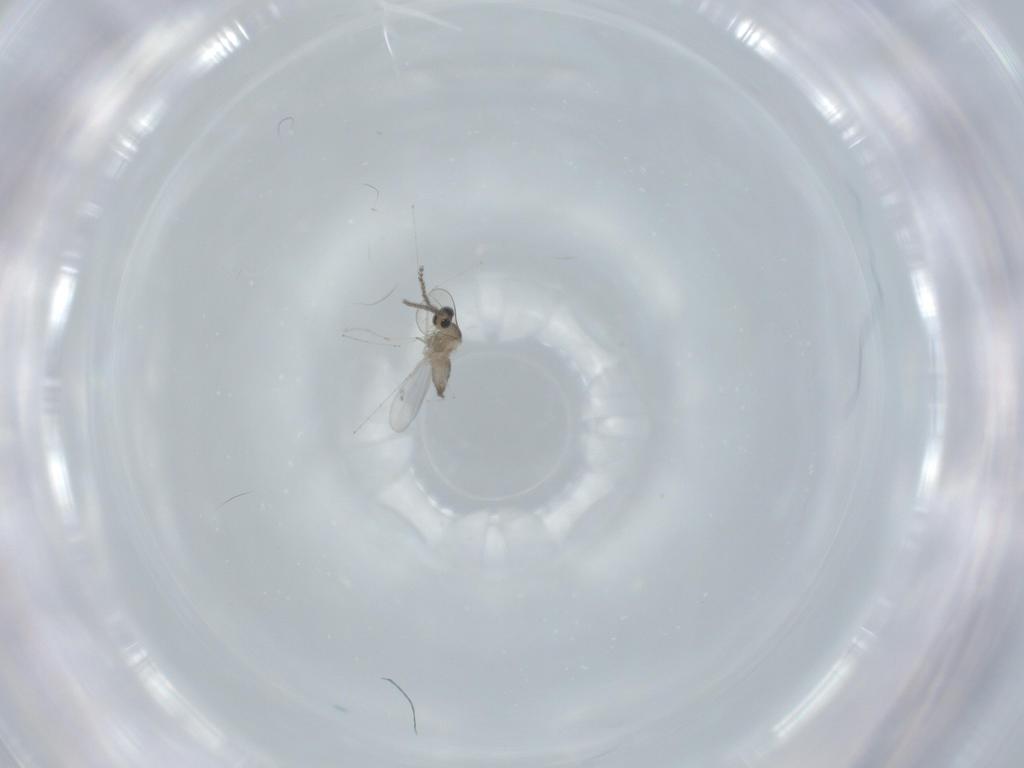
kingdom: Animalia
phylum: Arthropoda
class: Insecta
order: Diptera
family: Cecidomyiidae
